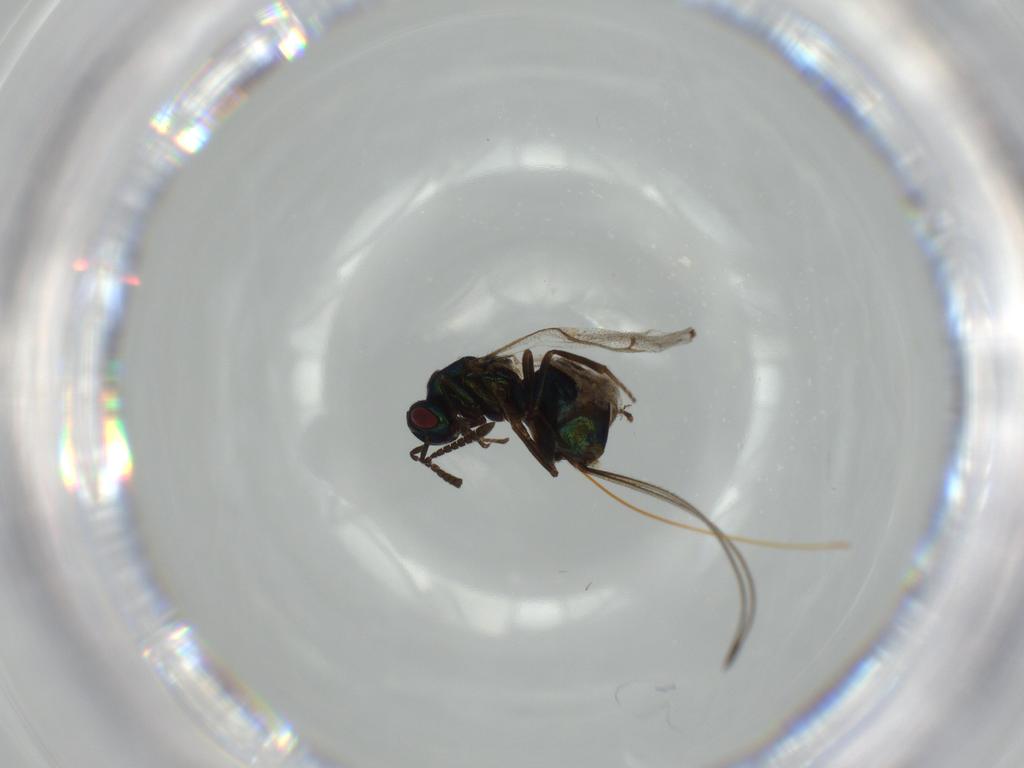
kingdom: Animalia
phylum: Arthropoda
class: Insecta
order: Hymenoptera
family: Torymidae
